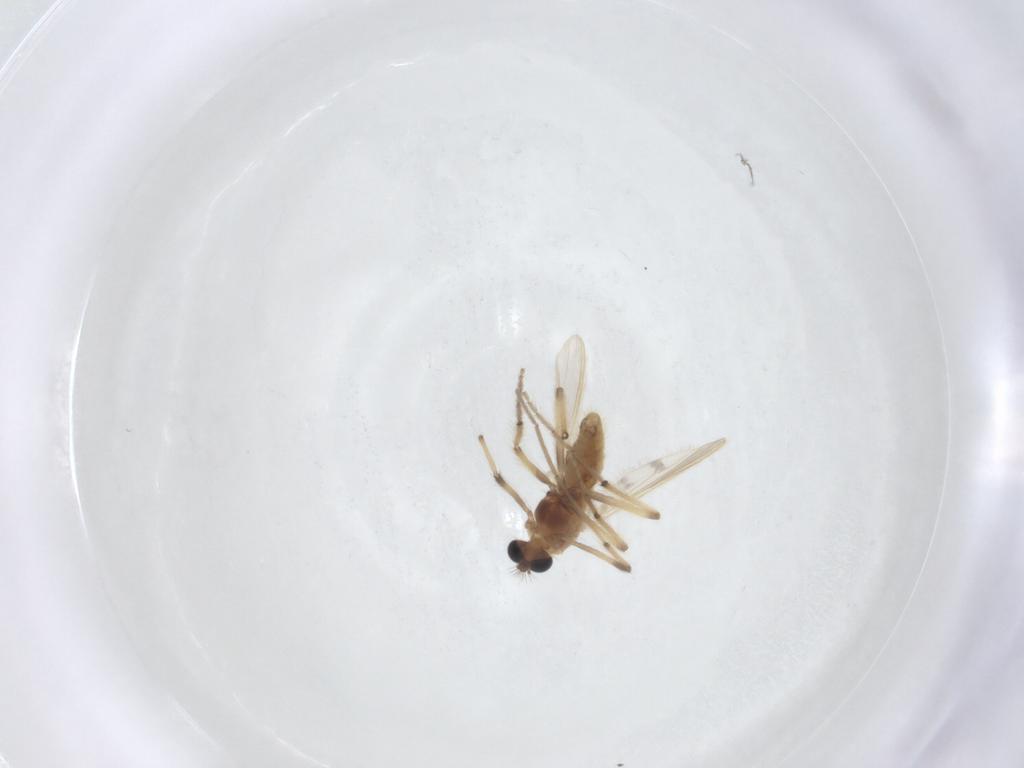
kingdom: Animalia
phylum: Arthropoda
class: Insecta
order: Diptera
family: Chironomidae
